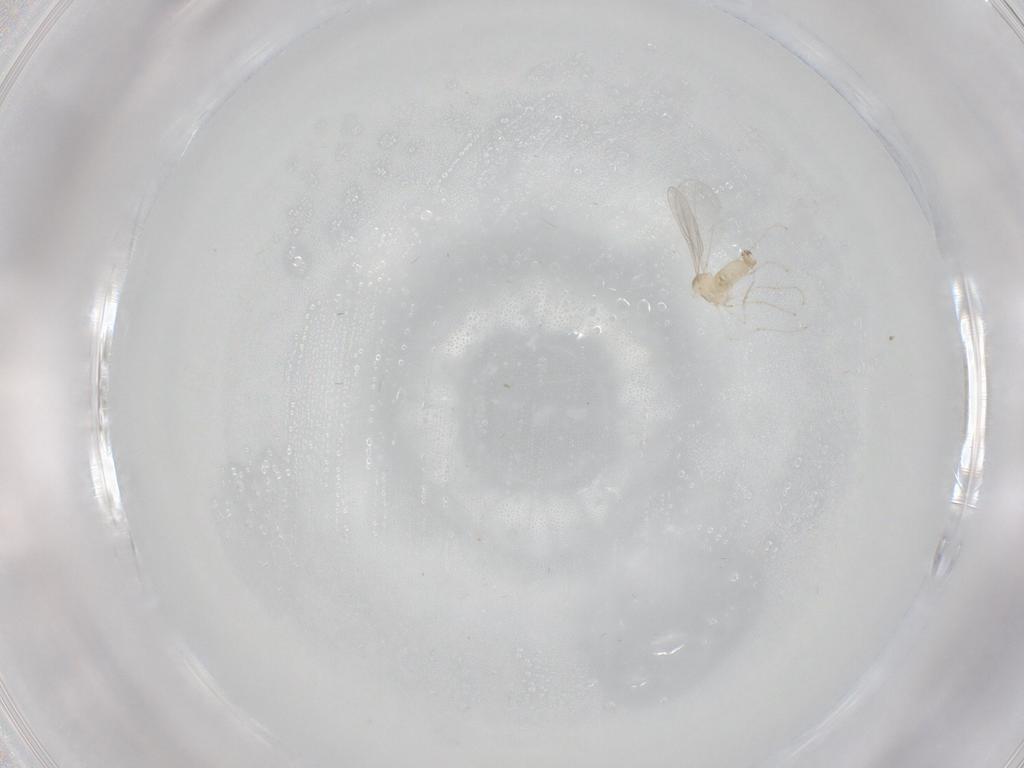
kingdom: Animalia
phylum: Arthropoda
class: Insecta
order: Diptera
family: Cecidomyiidae
